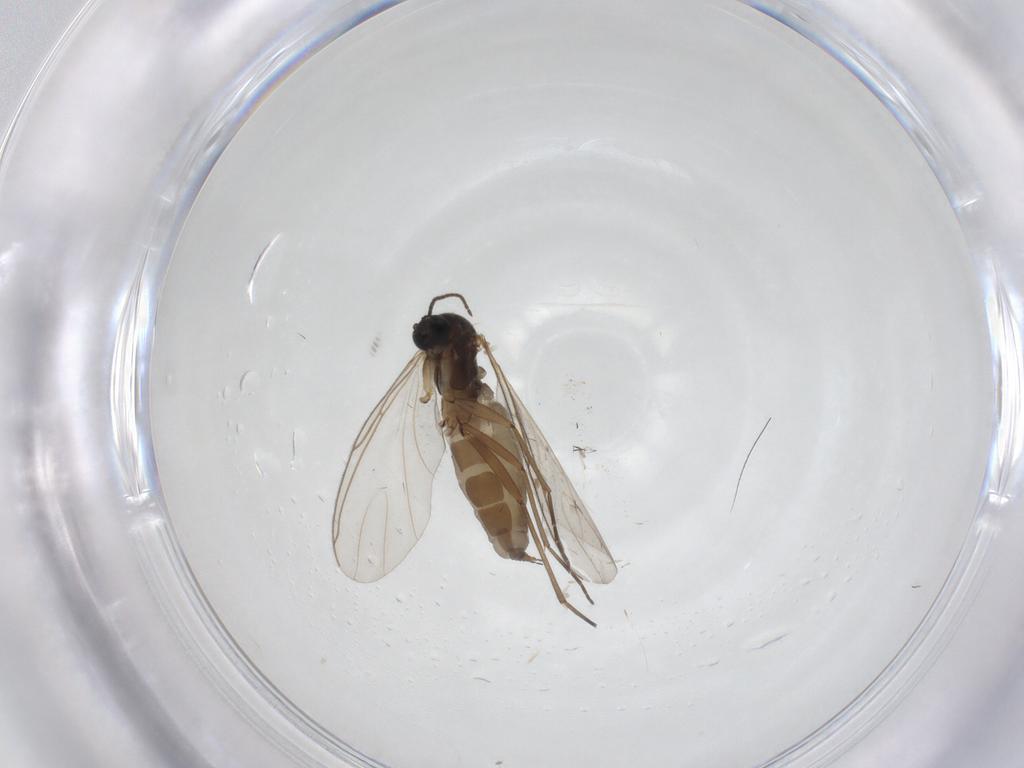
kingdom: Animalia
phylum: Arthropoda
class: Insecta
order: Diptera
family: Sciaridae
